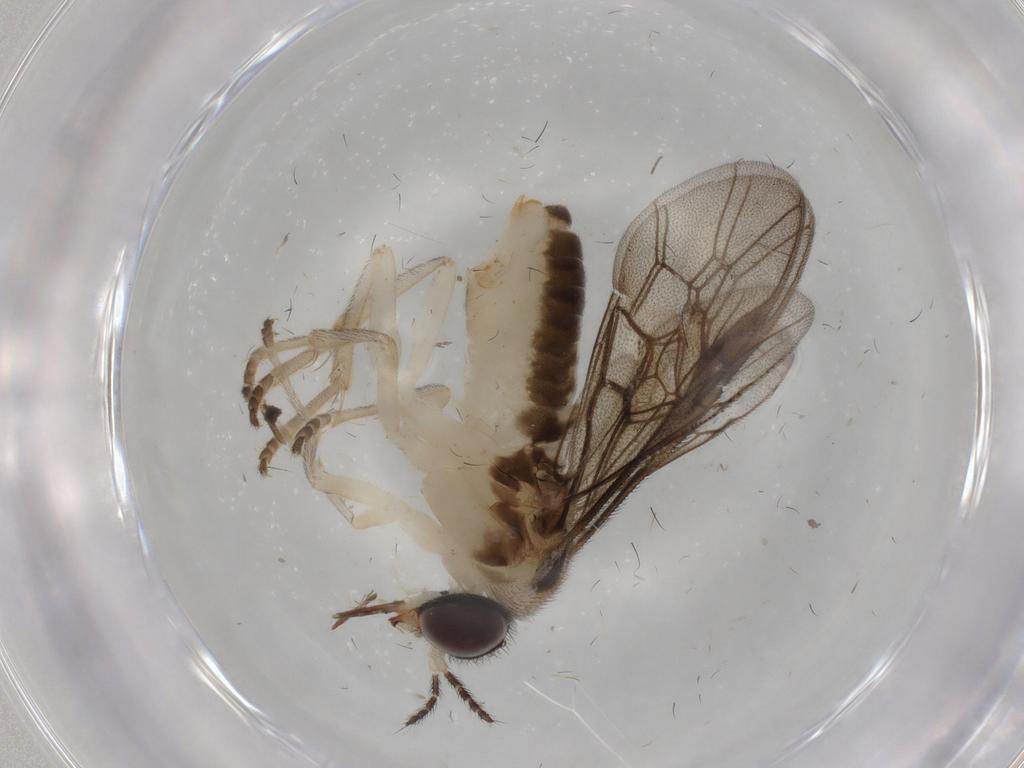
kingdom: Animalia
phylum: Arthropoda
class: Insecta
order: Hymenoptera
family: Pergidae
